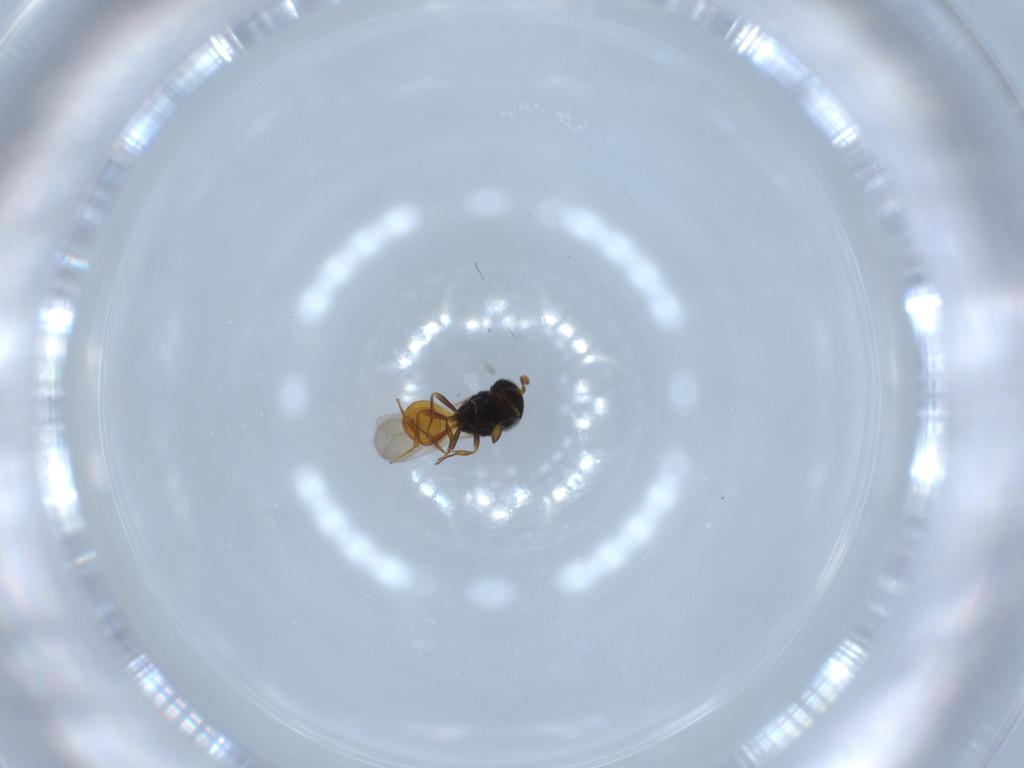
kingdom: Animalia
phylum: Arthropoda
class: Insecta
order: Hymenoptera
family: Scelionidae
